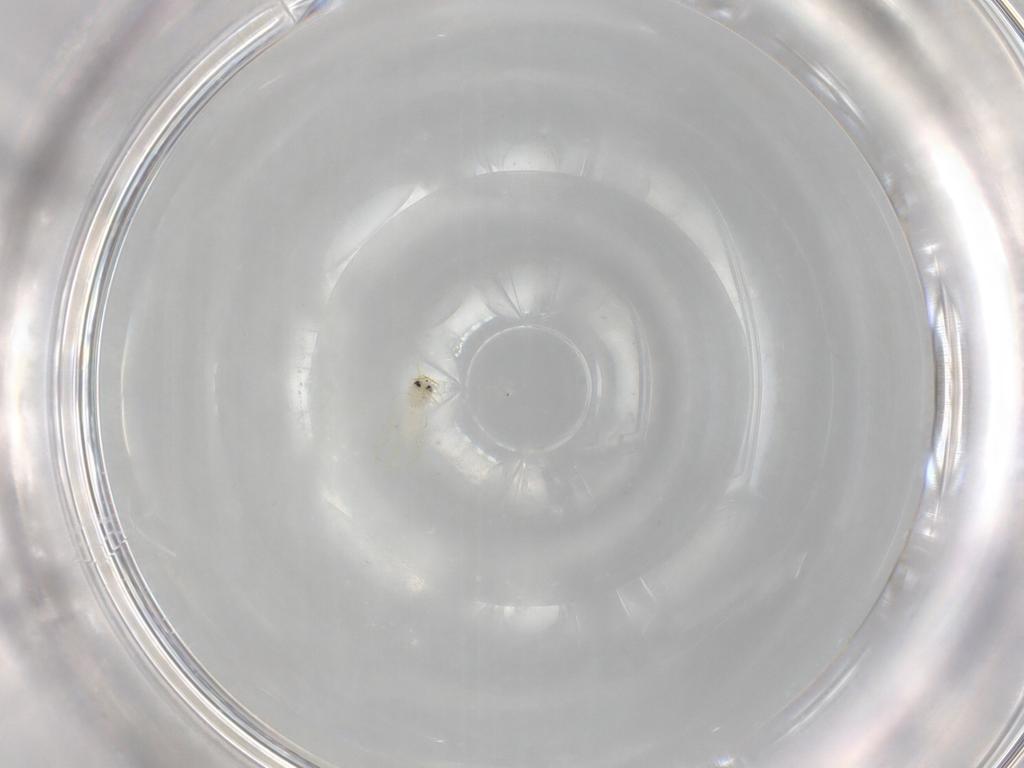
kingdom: Animalia
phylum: Arthropoda
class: Insecta
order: Hemiptera
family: Aleyrodidae
